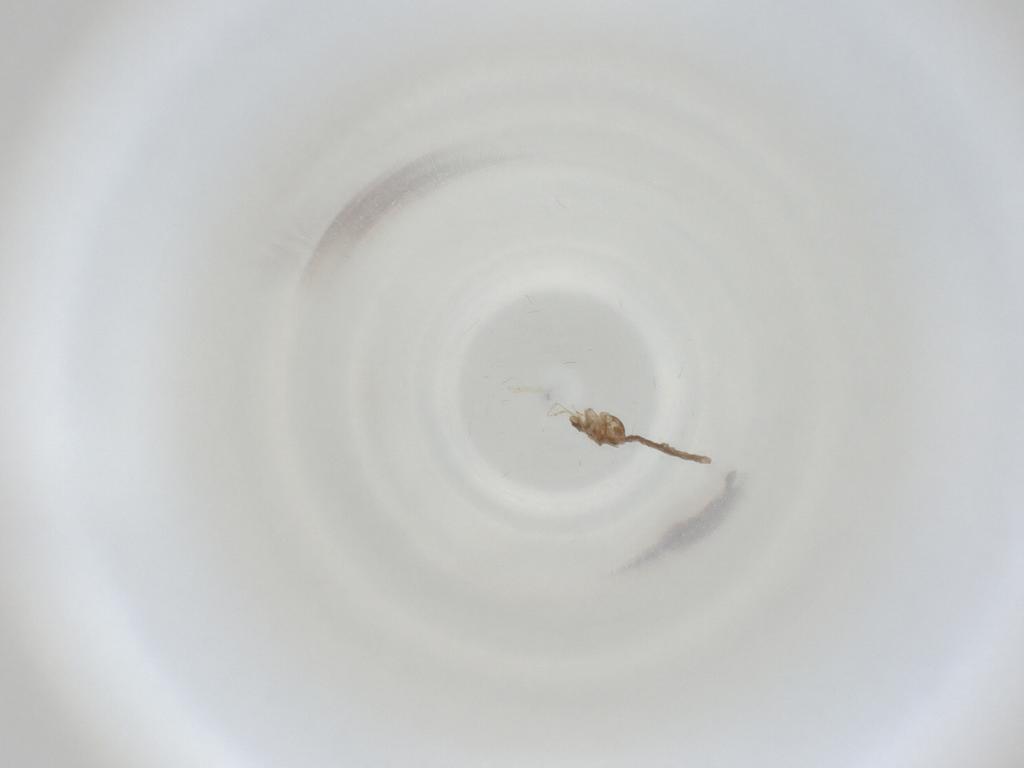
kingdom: Animalia
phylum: Arthropoda
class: Insecta
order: Diptera
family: Cecidomyiidae
